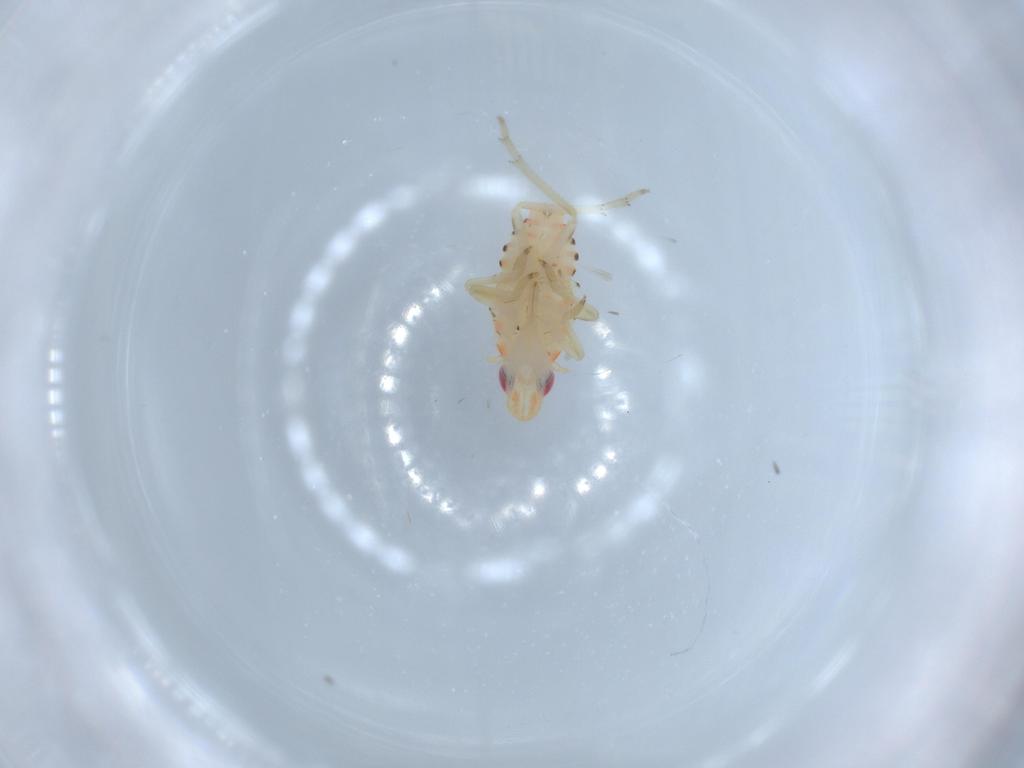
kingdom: Animalia
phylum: Arthropoda
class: Insecta
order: Hemiptera
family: Tropiduchidae
